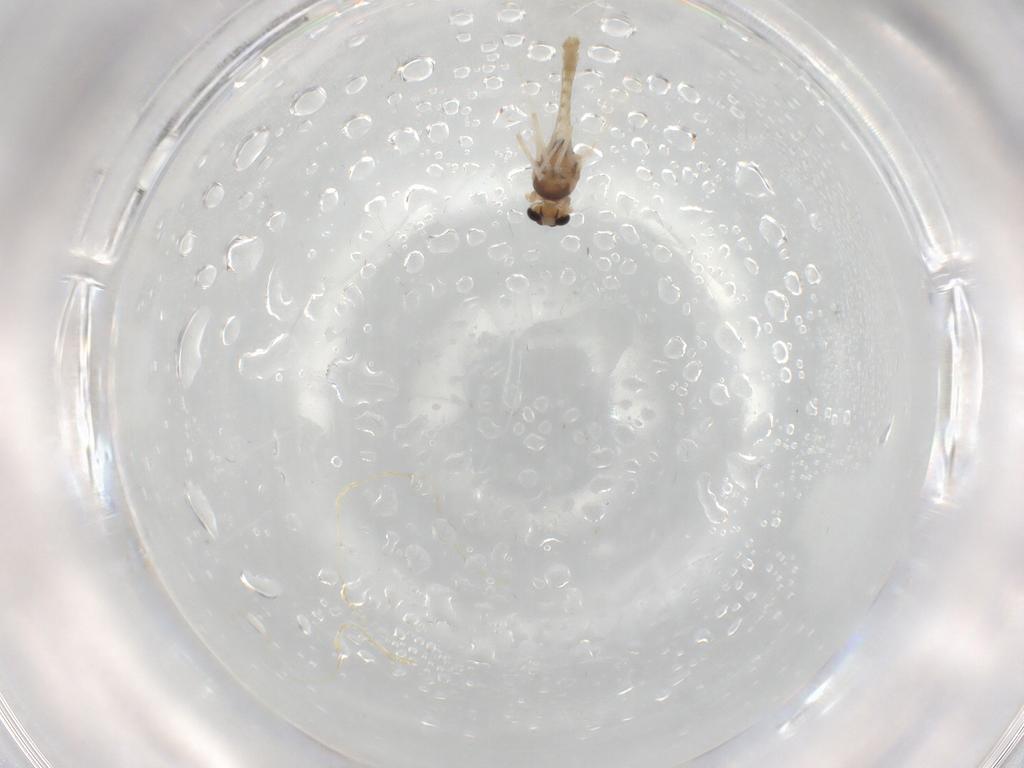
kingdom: Animalia
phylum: Arthropoda
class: Insecta
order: Diptera
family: Chironomidae
